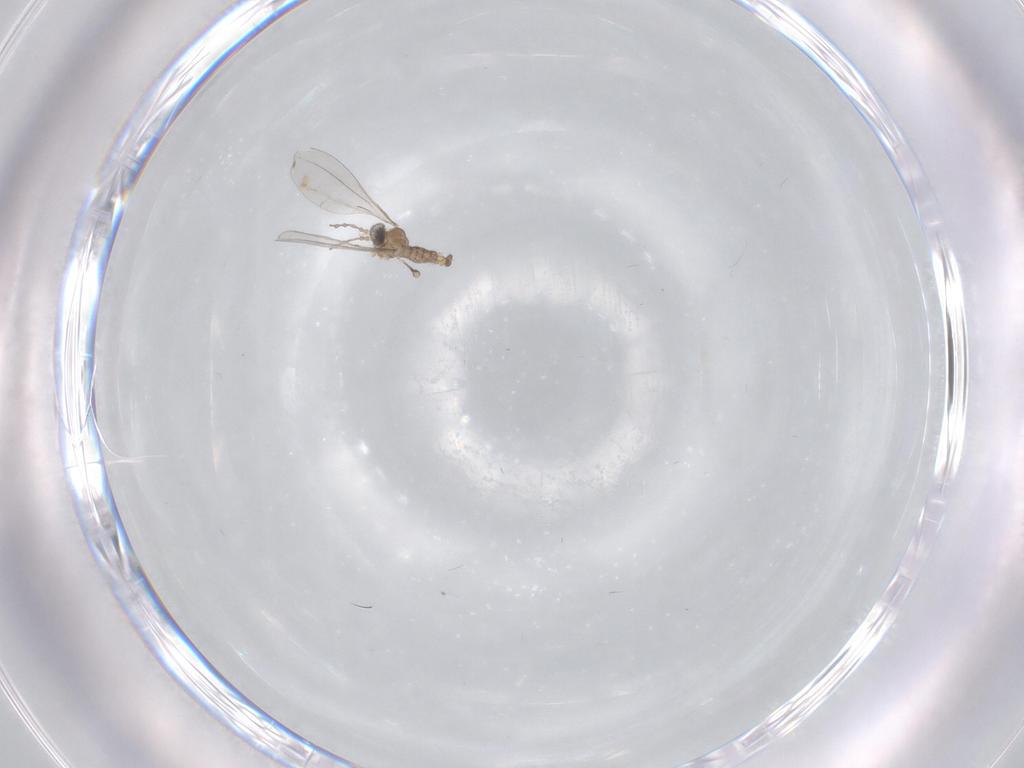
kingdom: Animalia
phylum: Arthropoda
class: Insecta
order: Diptera
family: Cecidomyiidae
